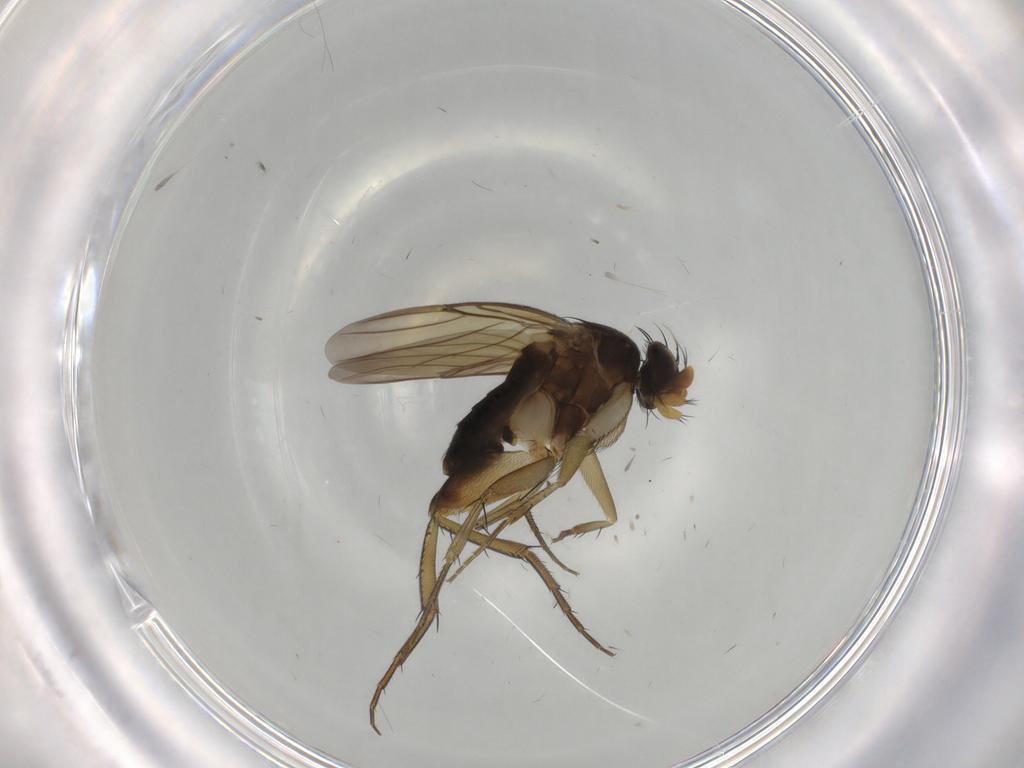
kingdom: Animalia
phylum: Arthropoda
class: Insecta
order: Diptera
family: Phoridae
